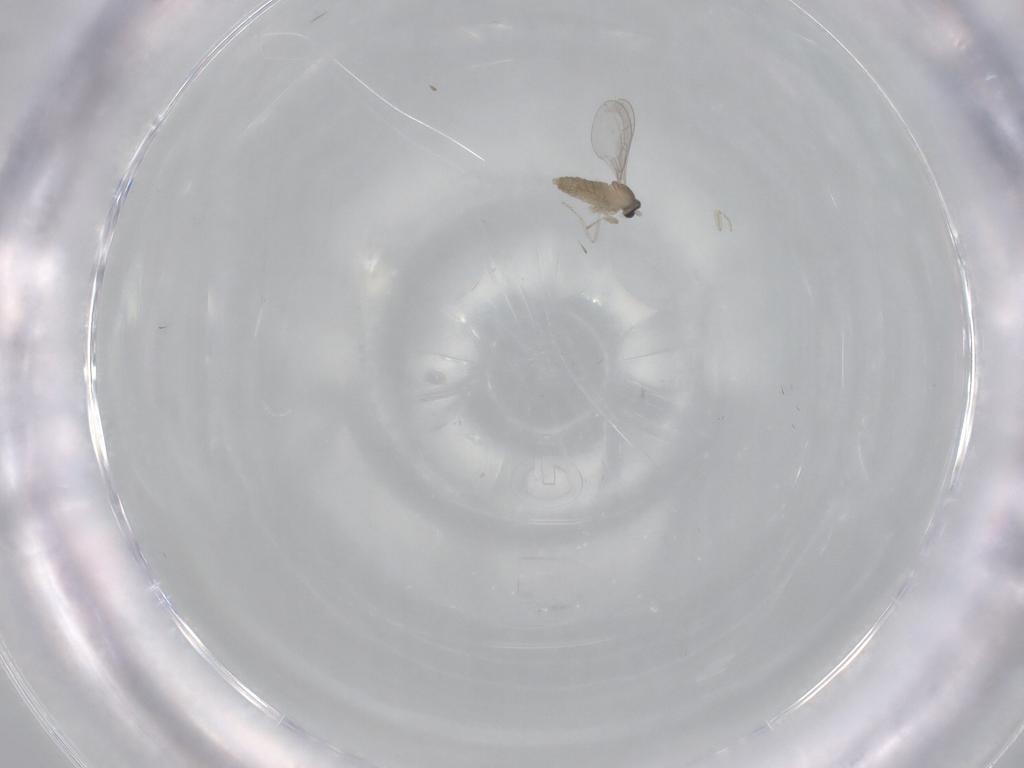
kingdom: Animalia
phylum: Arthropoda
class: Insecta
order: Diptera
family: Cecidomyiidae
